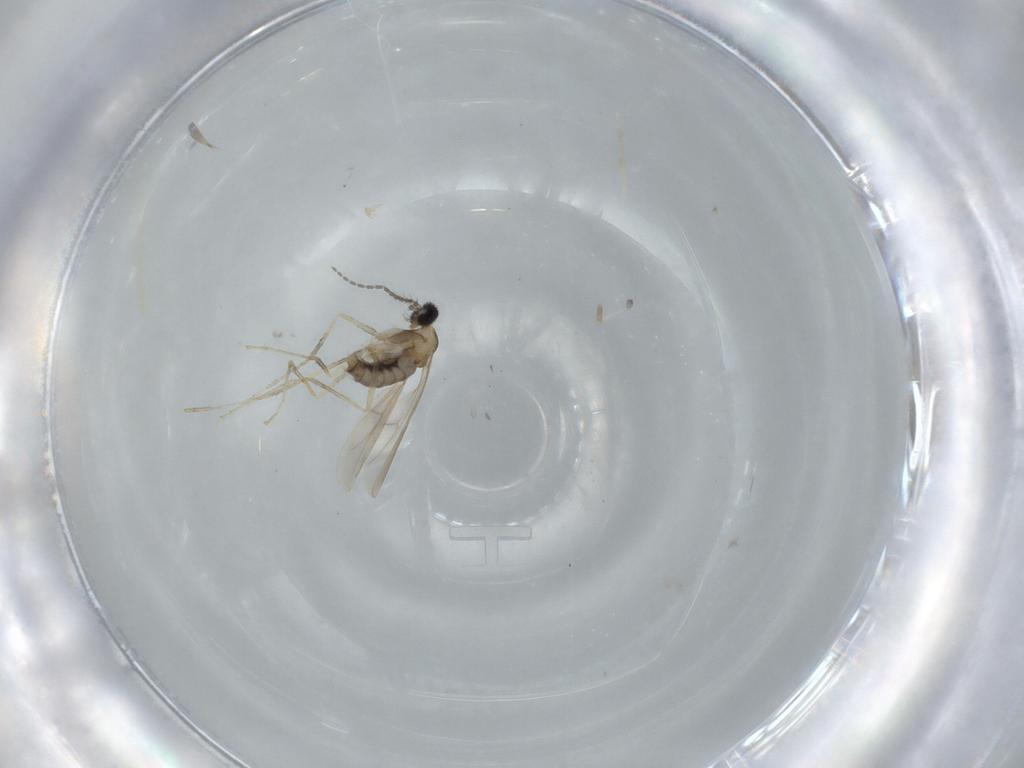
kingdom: Animalia
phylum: Arthropoda
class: Insecta
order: Diptera
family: Cecidomyiidae
